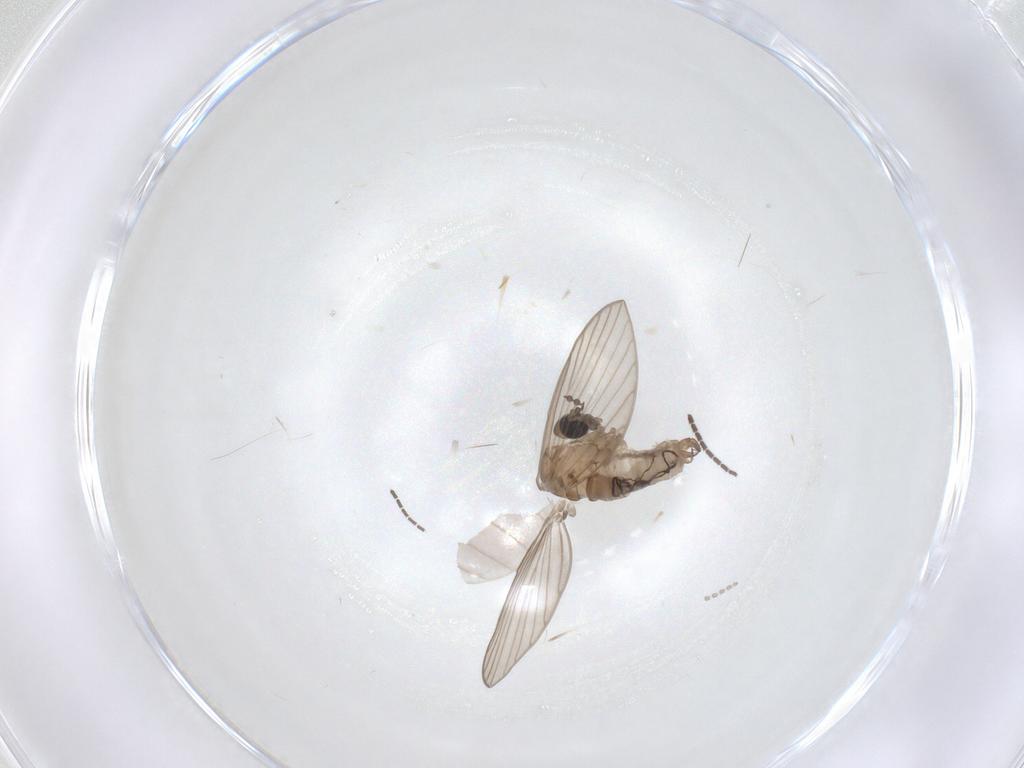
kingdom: Animalia
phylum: Arthropoda
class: Insecta
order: Diptera
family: Psychodidae
